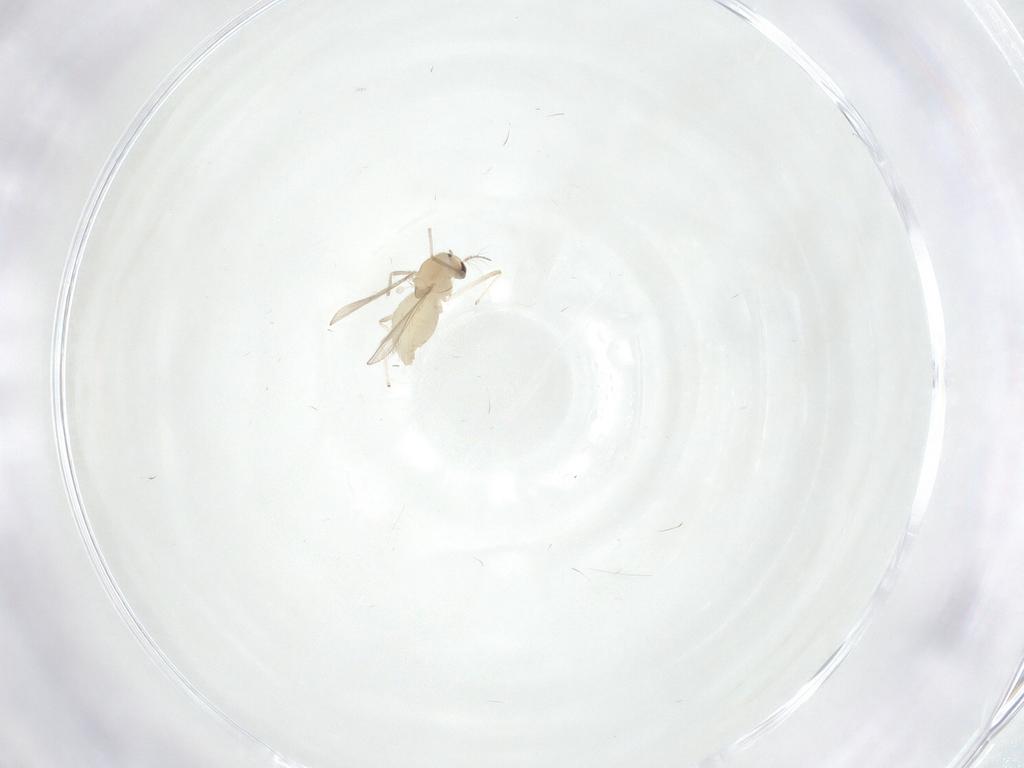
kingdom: Animalia
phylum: Arthropoda
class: Insecta
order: Diptera
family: Chironomidae
